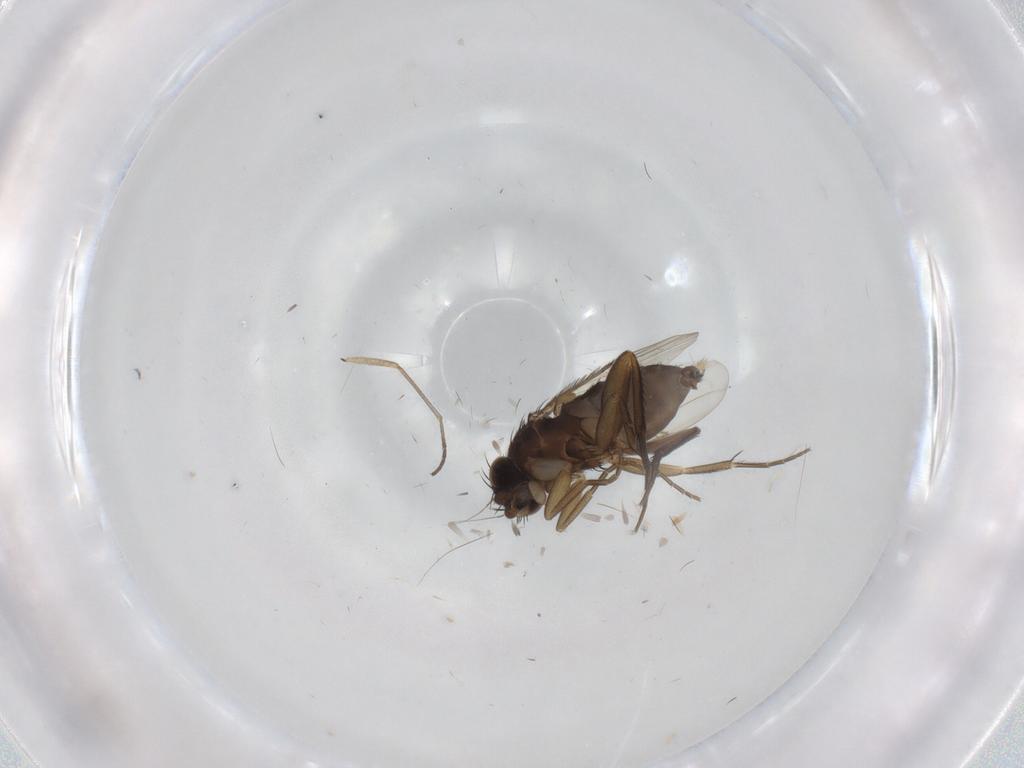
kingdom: Animalia
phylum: Arthropoda
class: Insecta
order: Diptera
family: Phoridae
